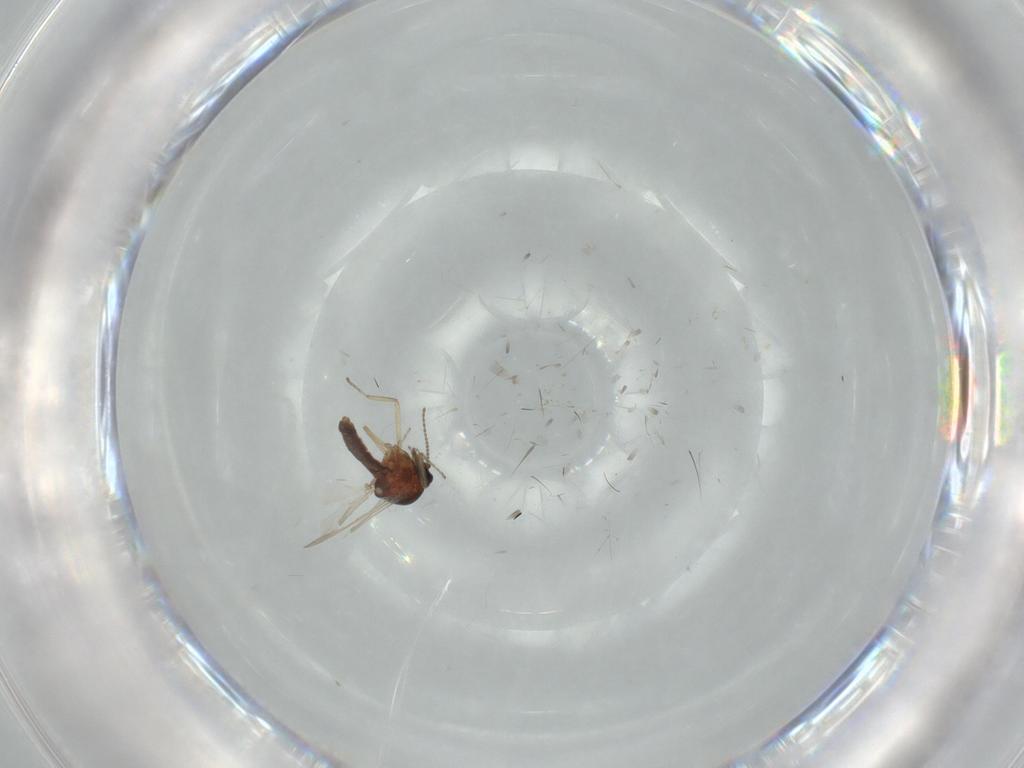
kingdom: Animalia
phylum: Arthropoda
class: Insecta
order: Diptera
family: Ceratopogonidae
